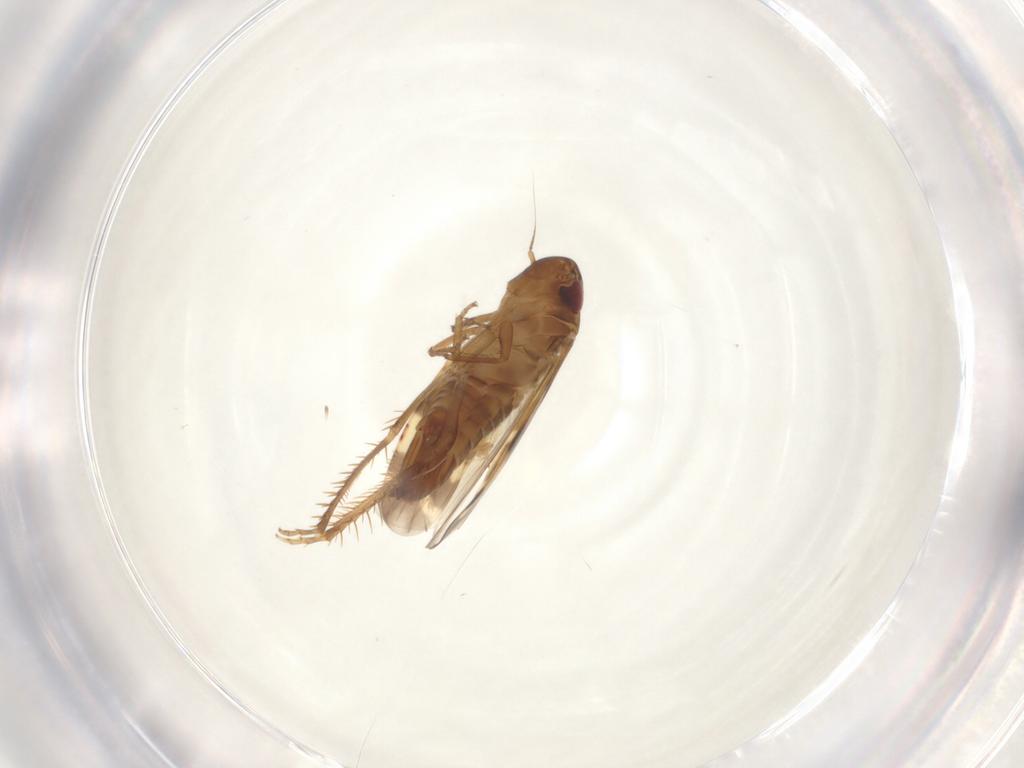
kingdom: Animalia
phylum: Arthropoda
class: Insecta
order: Hemiptera
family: Cicadellidae
